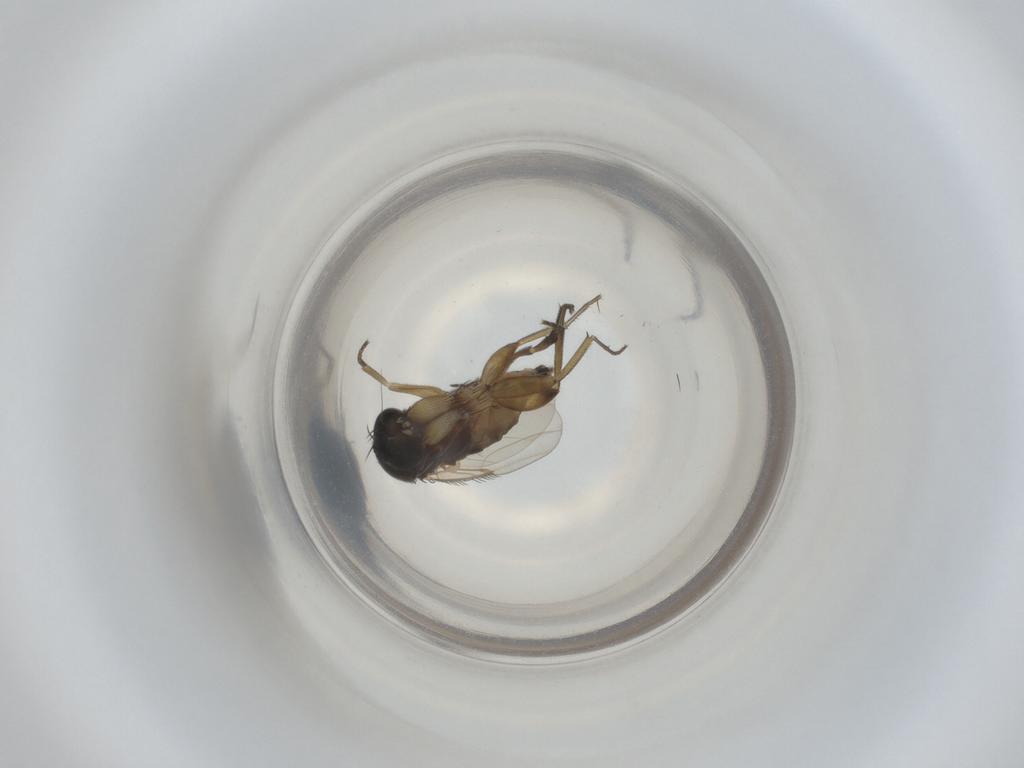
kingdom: Animalia
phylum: Arthropoda
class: Insecta
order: Diptera
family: Phoridae
